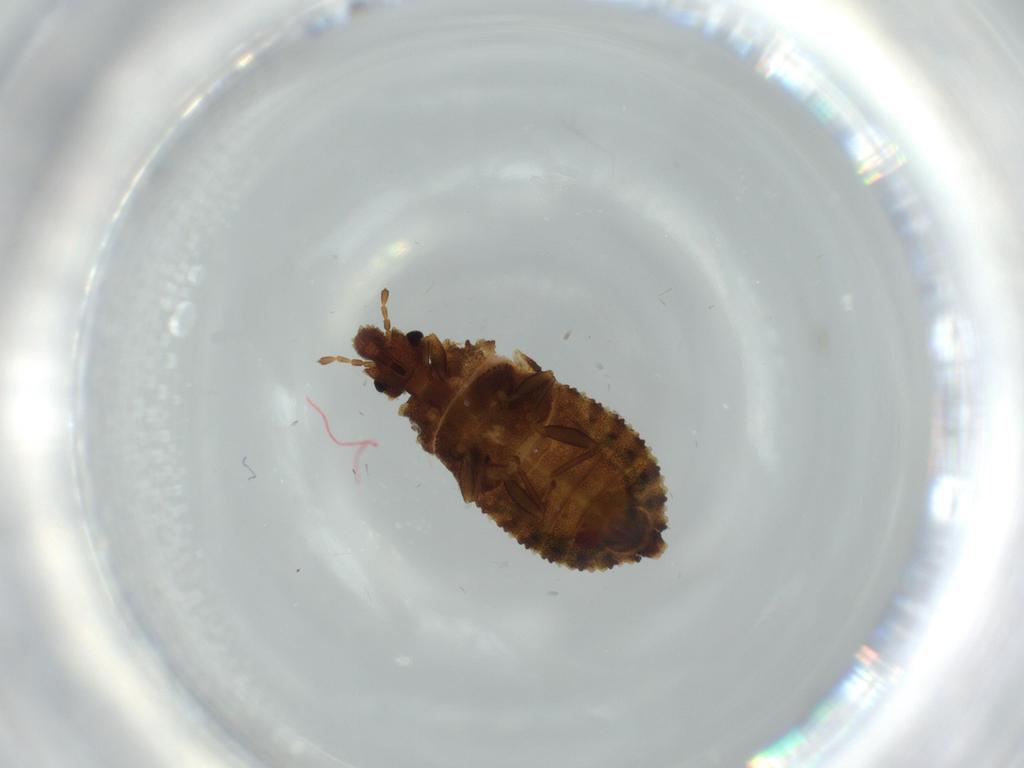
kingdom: Animalia
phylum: Arthropoda
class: Insecta
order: Hemiptera
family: Aradidae
